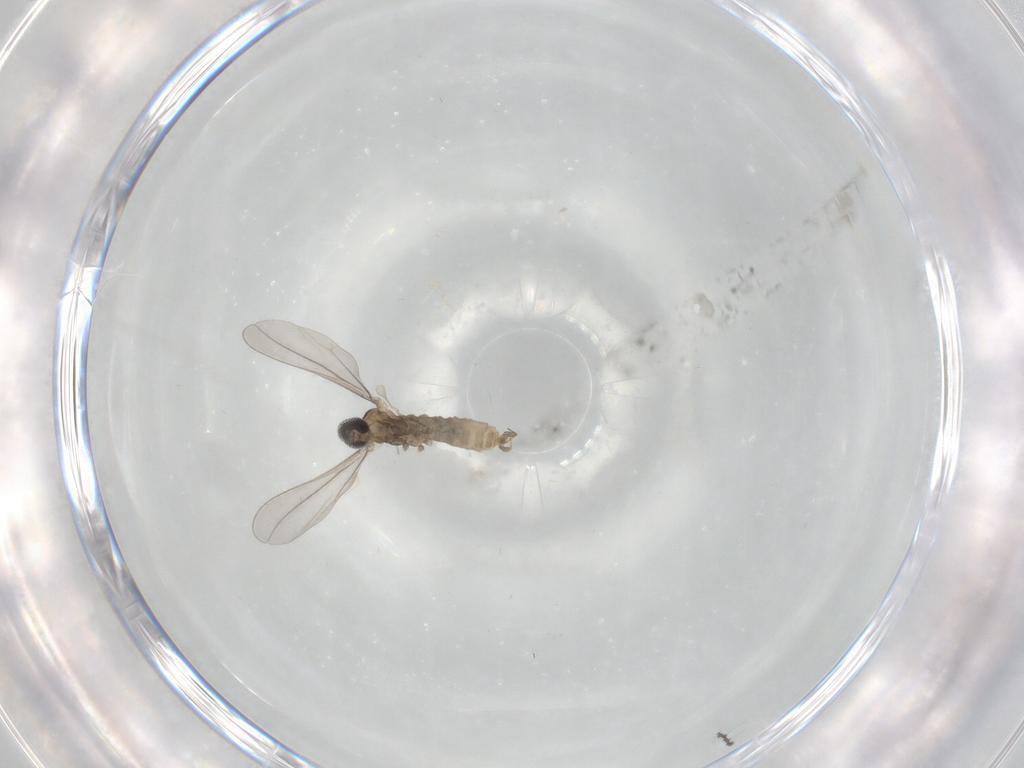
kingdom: Animalia
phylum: Arthropoda
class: Insecta
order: Diptera
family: Cecidomyiidae
